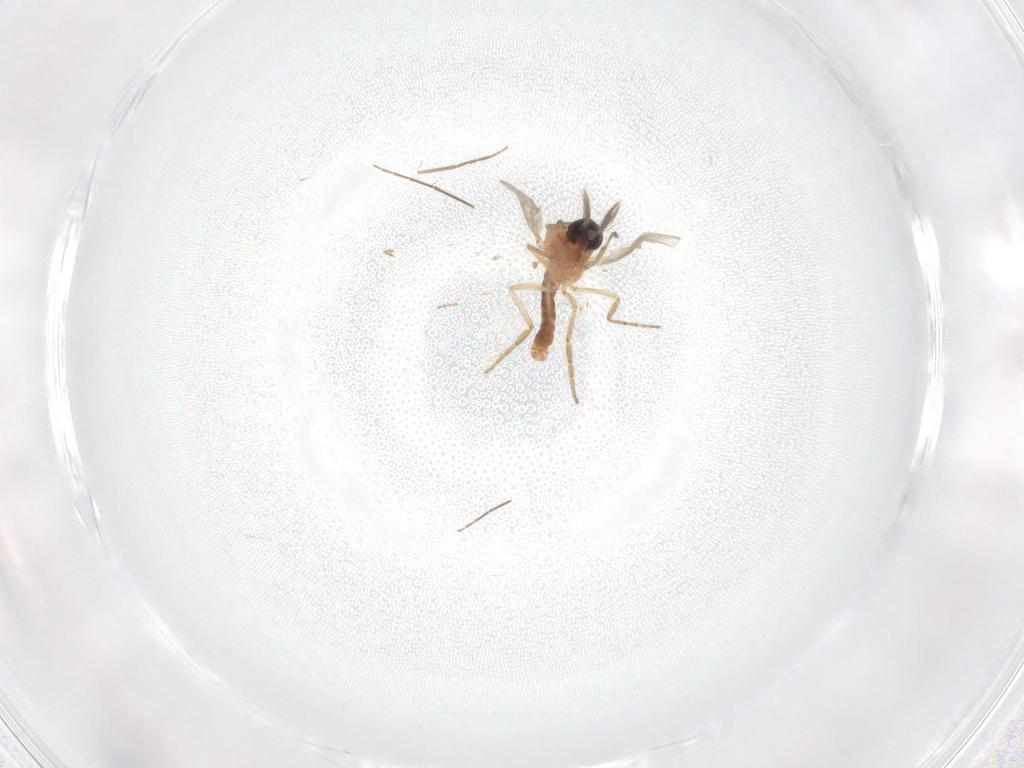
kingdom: Animalia
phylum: Arthropoda
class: Insecta
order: Diptera
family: Chironomidae
